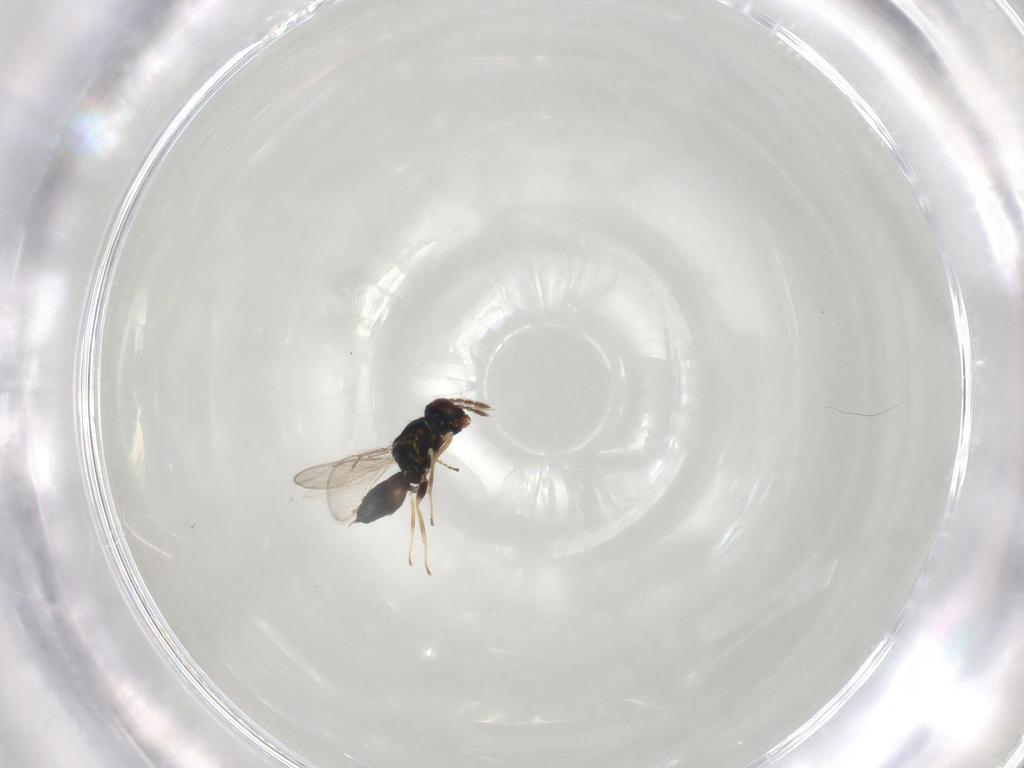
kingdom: Animalia
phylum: Arthropoda
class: Insecta
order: Hymenoptera
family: Eulophidae
